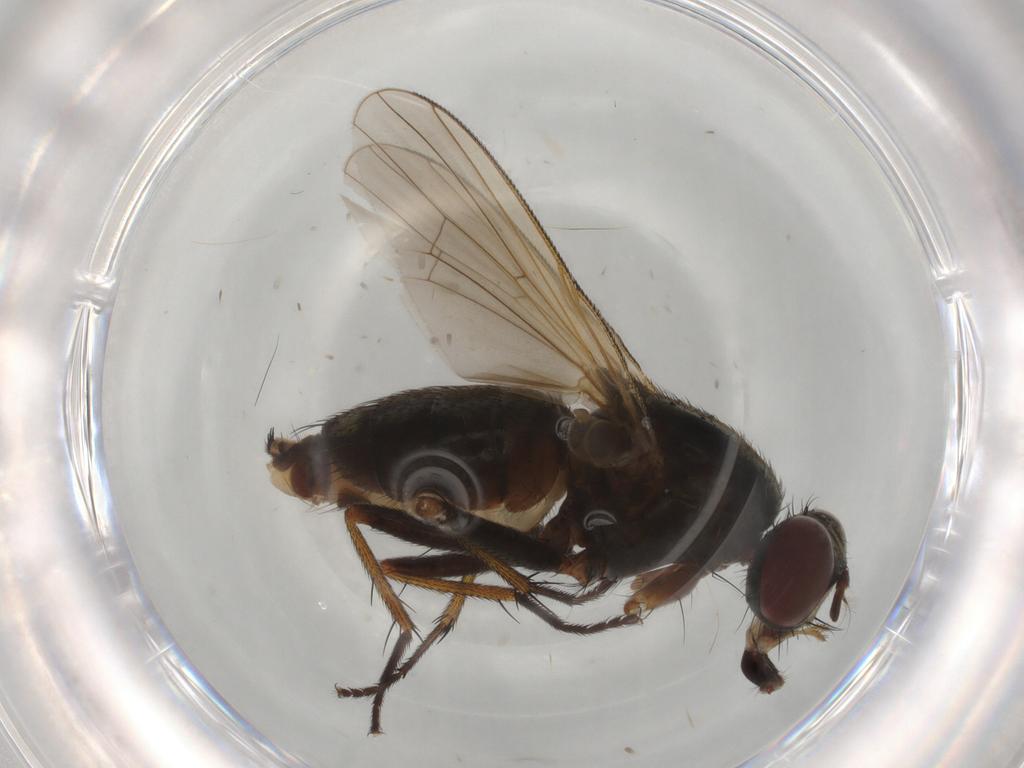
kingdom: Animalia
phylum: Arthropoda
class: Insecta
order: Diptera
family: Muscidae
